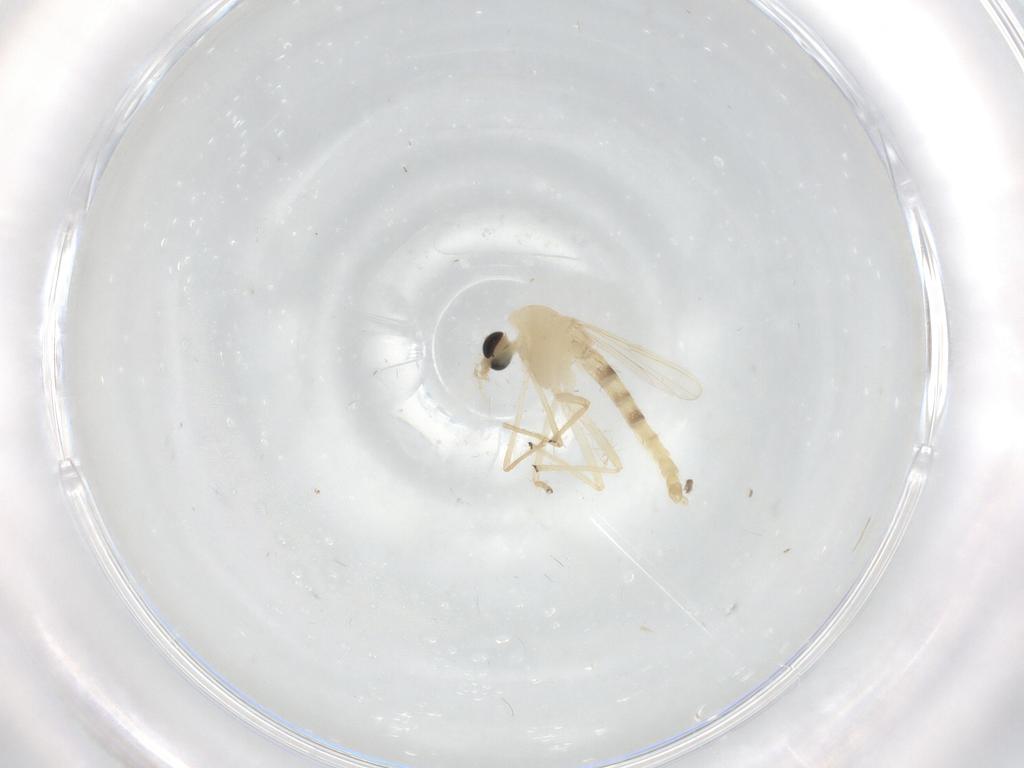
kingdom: Animalia
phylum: Arthropoda
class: Insecta
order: Diptera
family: Chironomidae
